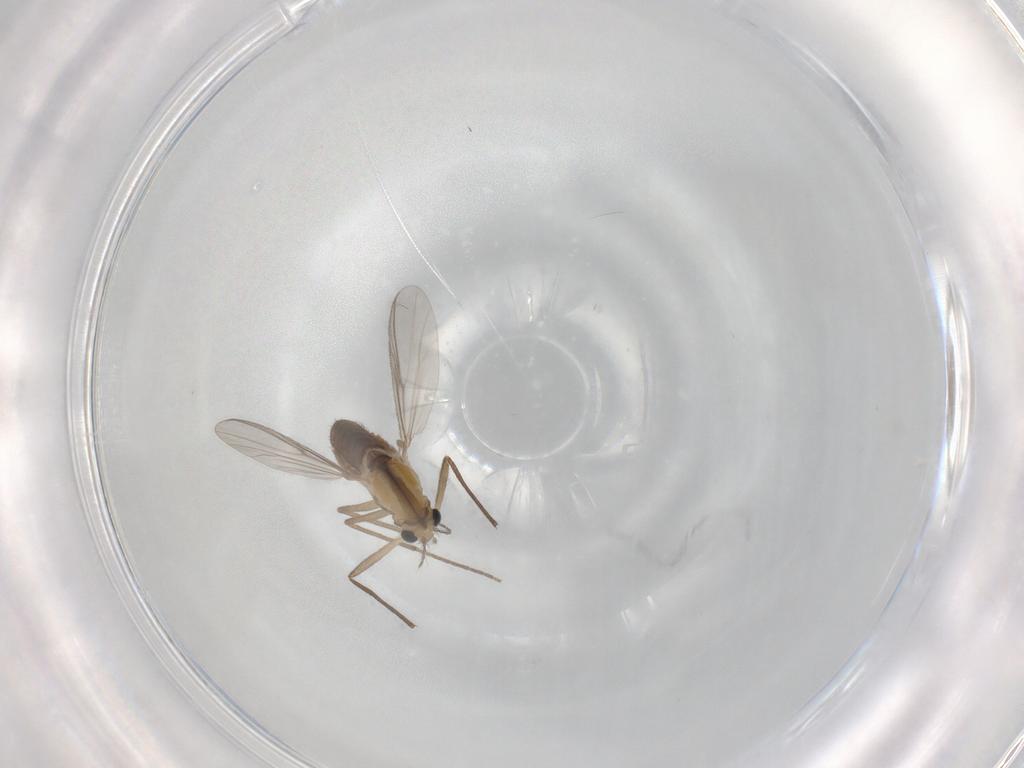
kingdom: Animalia
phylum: Arthropoda
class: Insecta
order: Diptera
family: Chironomidae
